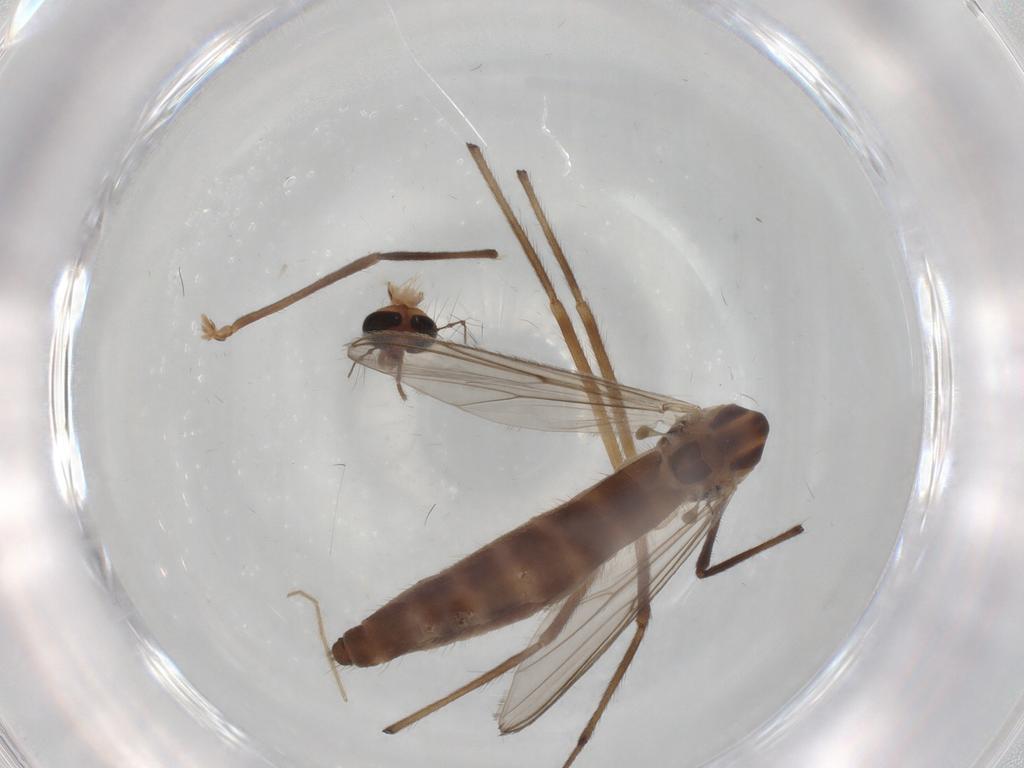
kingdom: Animalia
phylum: Arthropoda
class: Insecta
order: Diptera
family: Chironomidae
